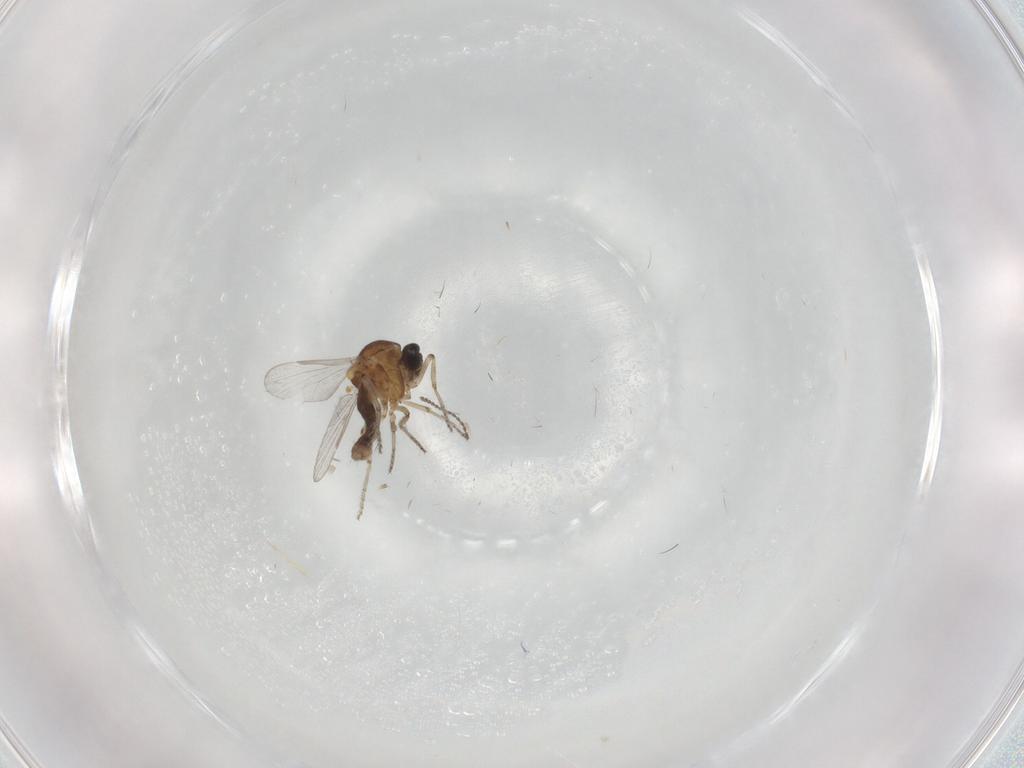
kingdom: Animalia
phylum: Arthropoda
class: Insecta
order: Diptera
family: Ceratopogonidae
